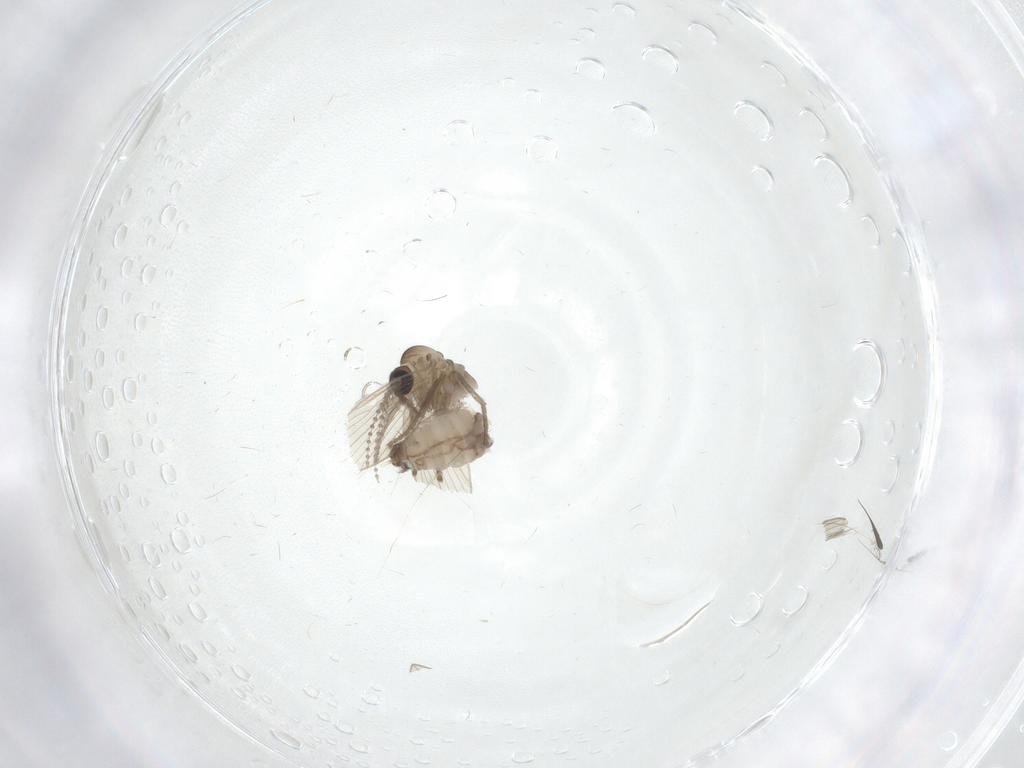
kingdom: Animalia
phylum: Arthropoda
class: Insecta
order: Diptera
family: Psychodidae
